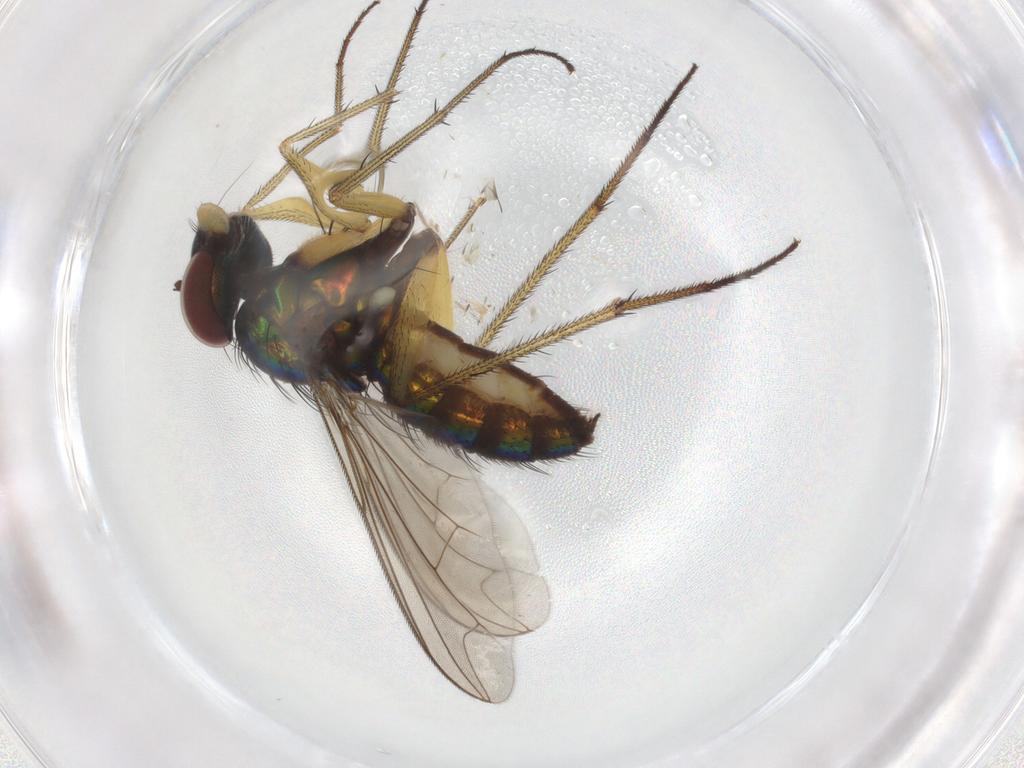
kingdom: Animalia
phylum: Arthropoda
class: Insecta
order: Diptera
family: Dolichopodidae
